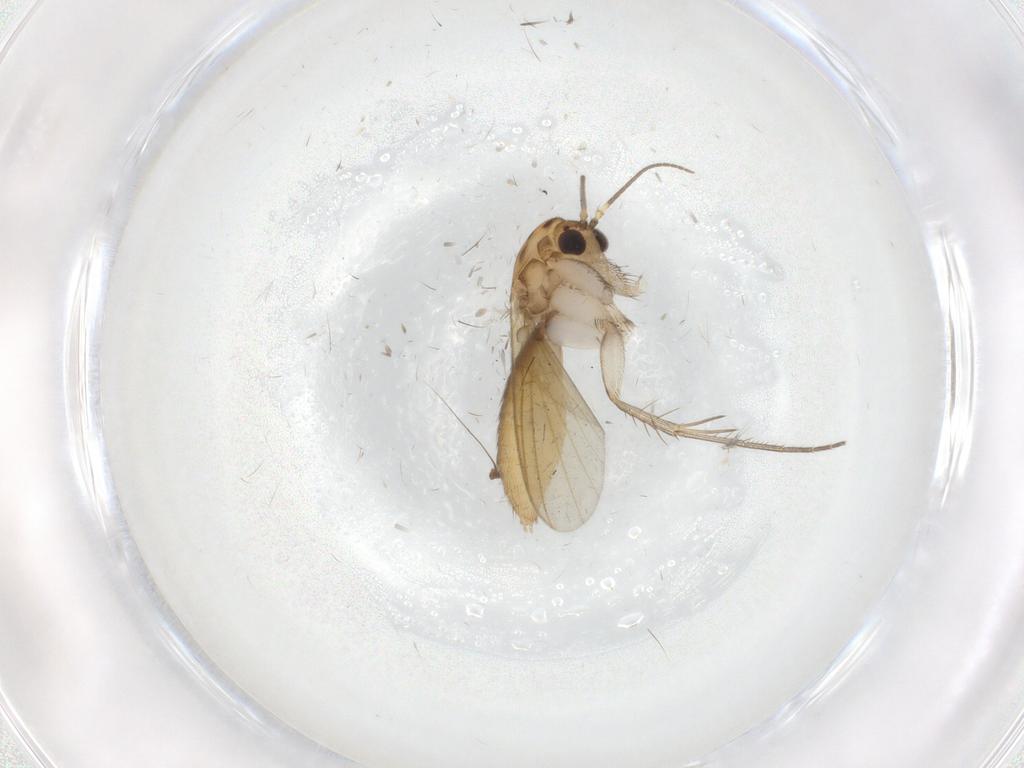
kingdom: Animalia
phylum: Arthropoda
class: Insecta
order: Diptera
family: Mycetophilidae
